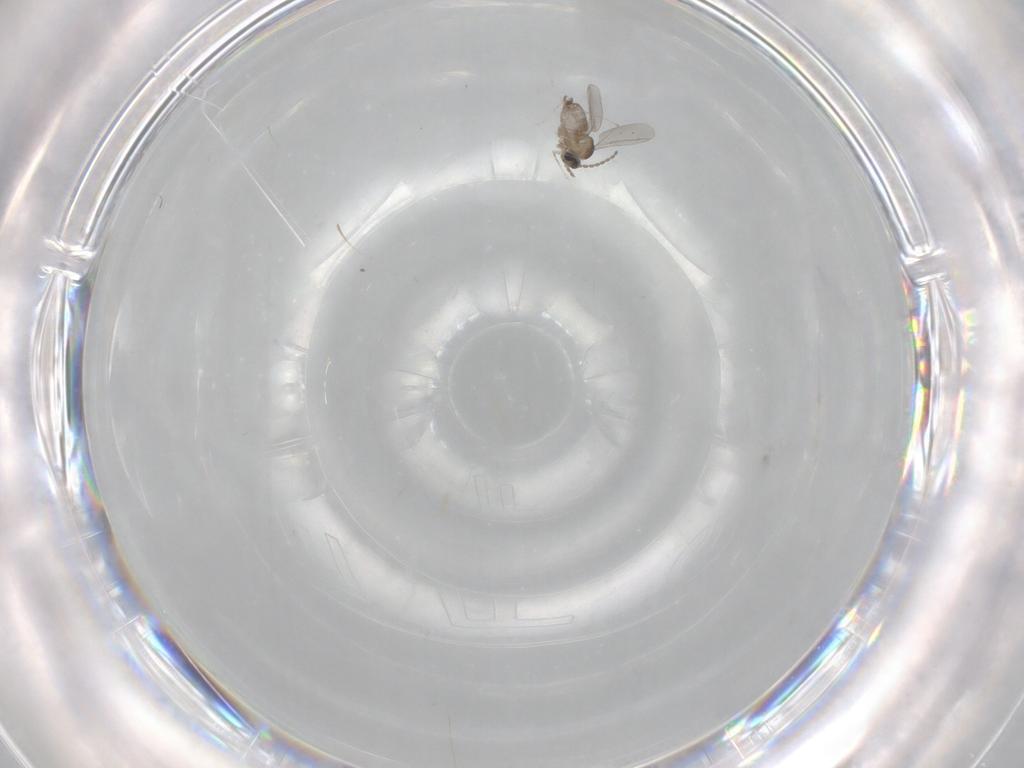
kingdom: Animalia
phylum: Arthropoda
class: Insecta
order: Diptera
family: Cecidomyiidae
